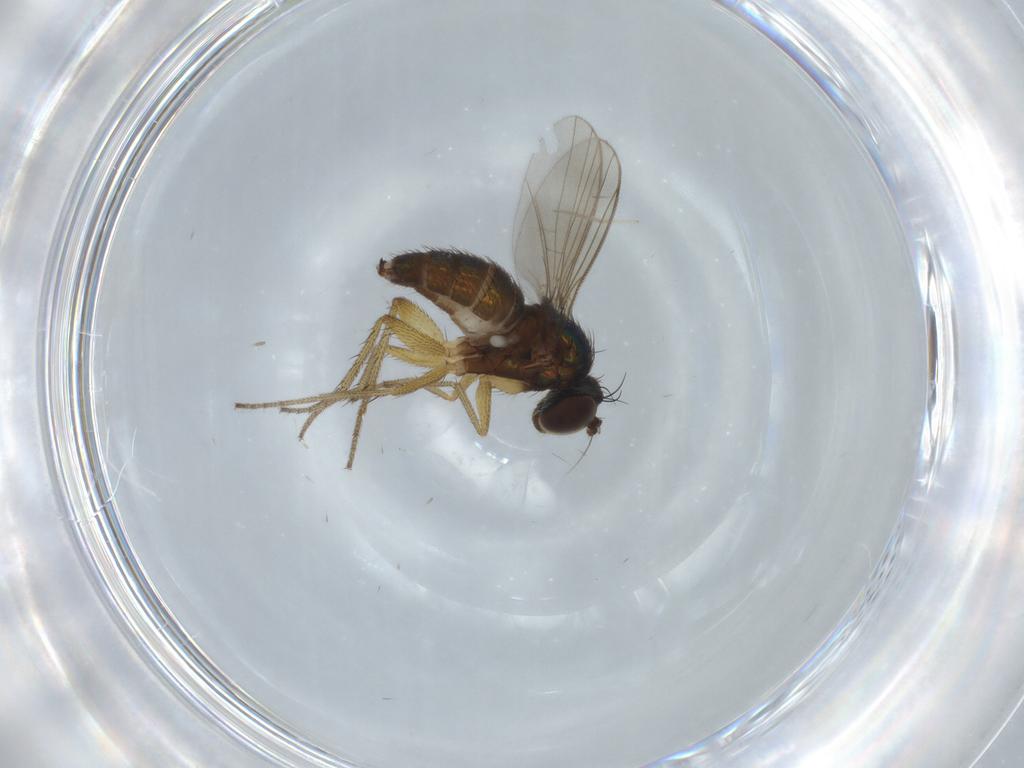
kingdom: Animalia
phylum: Arthropoda
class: Insecta
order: Diptera
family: Dolichopodidae
